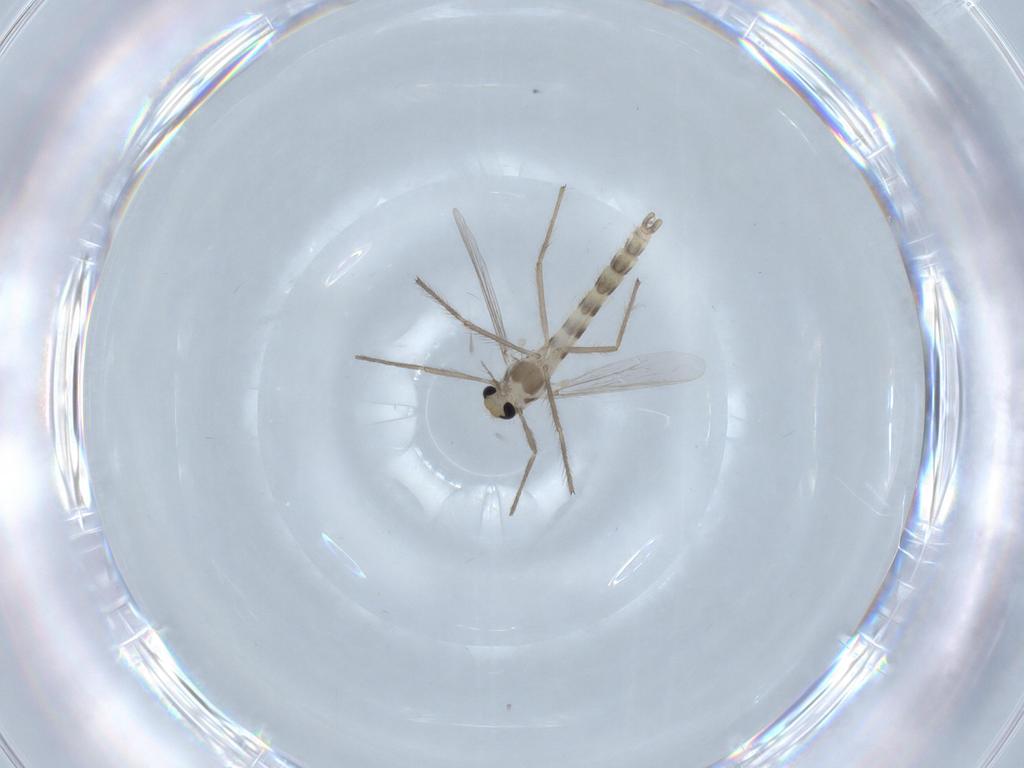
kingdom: Animalia
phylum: Arthropoda
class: Insecta
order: Diptera
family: Chironomidae
